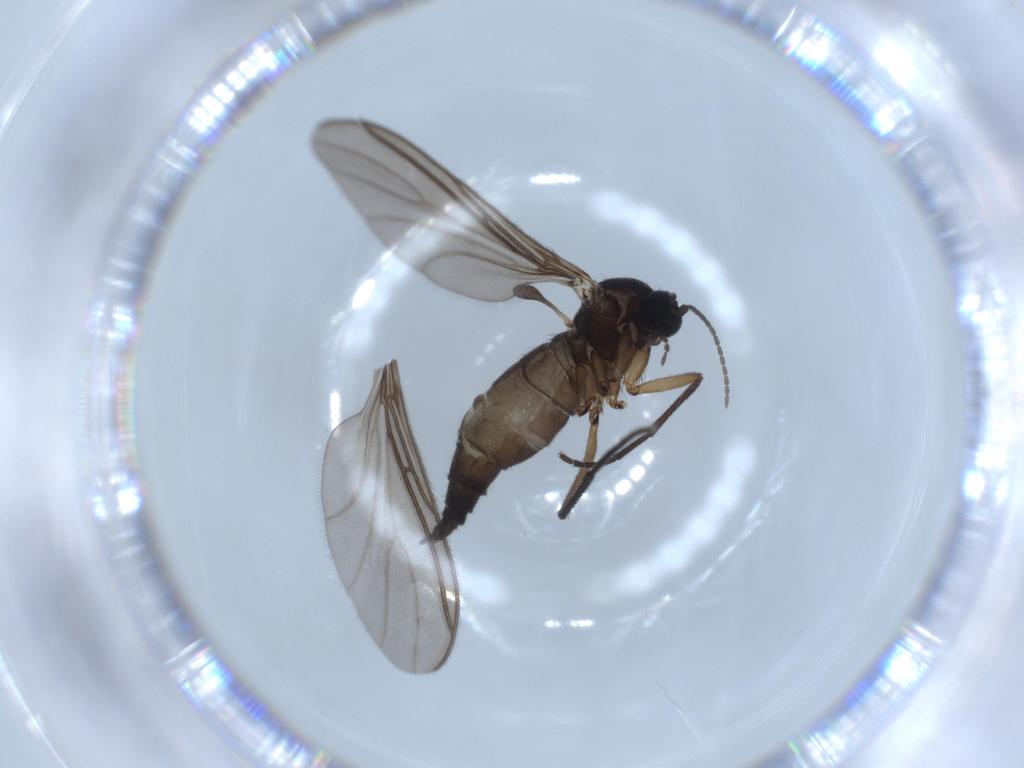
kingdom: Animalia
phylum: Arthropoda
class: Insecta
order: Diptera
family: Sciaridae
